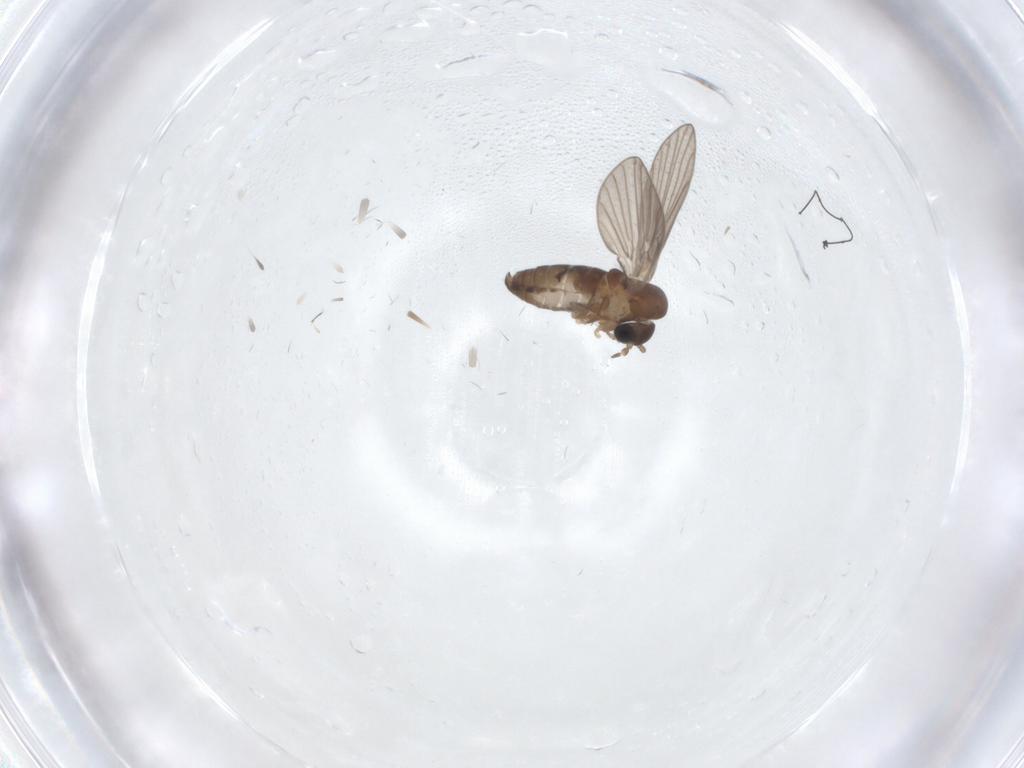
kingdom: Animalia
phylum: Arthropoda
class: Insecta
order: Diptera
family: Psychodidae
